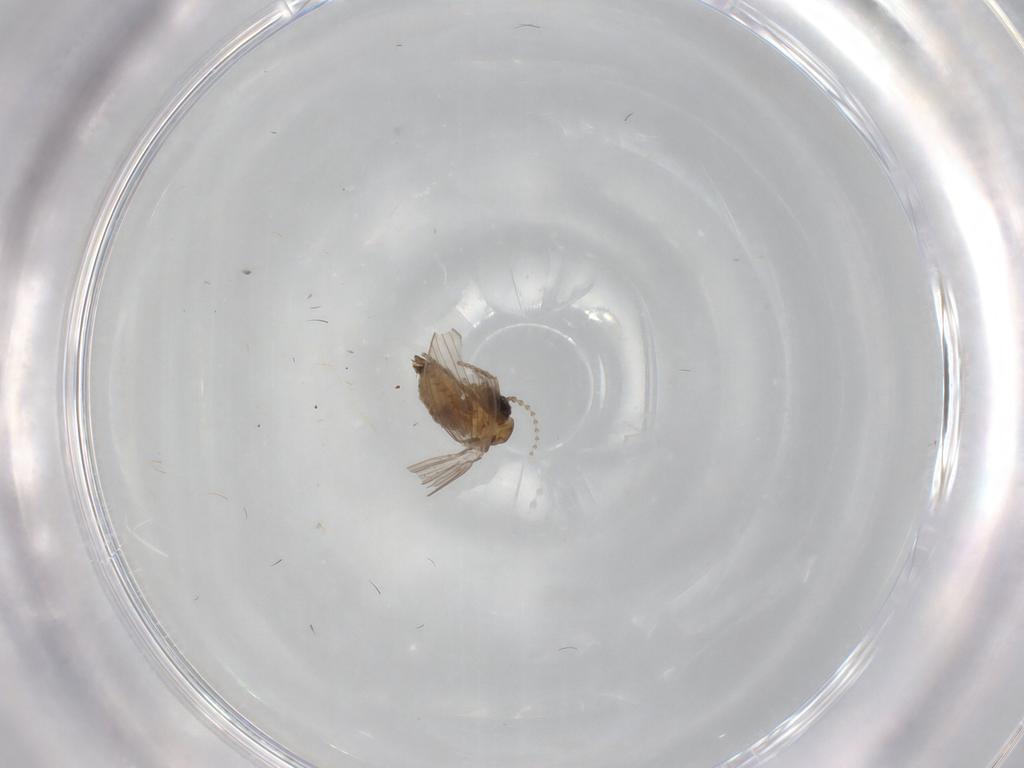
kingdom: Animalia
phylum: Arthropoda
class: Insecta
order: Diptera
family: Psychodidae
